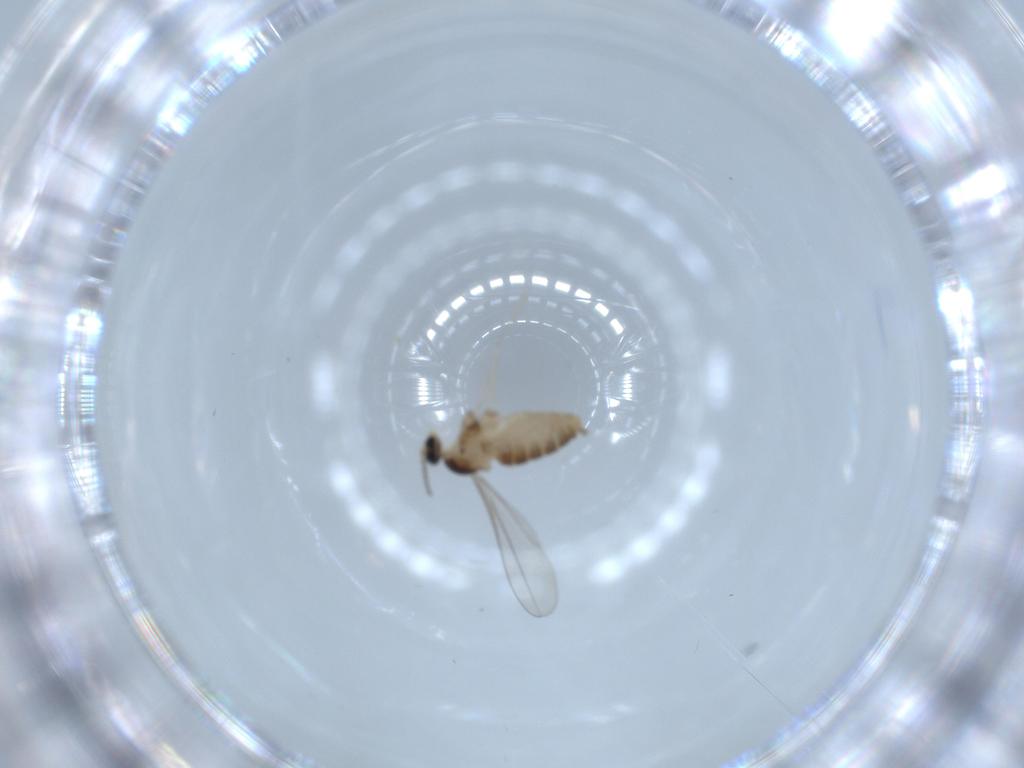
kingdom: Animalia
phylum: Arthropoda
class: Insecta
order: Diptera
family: Cecidomyiidae
